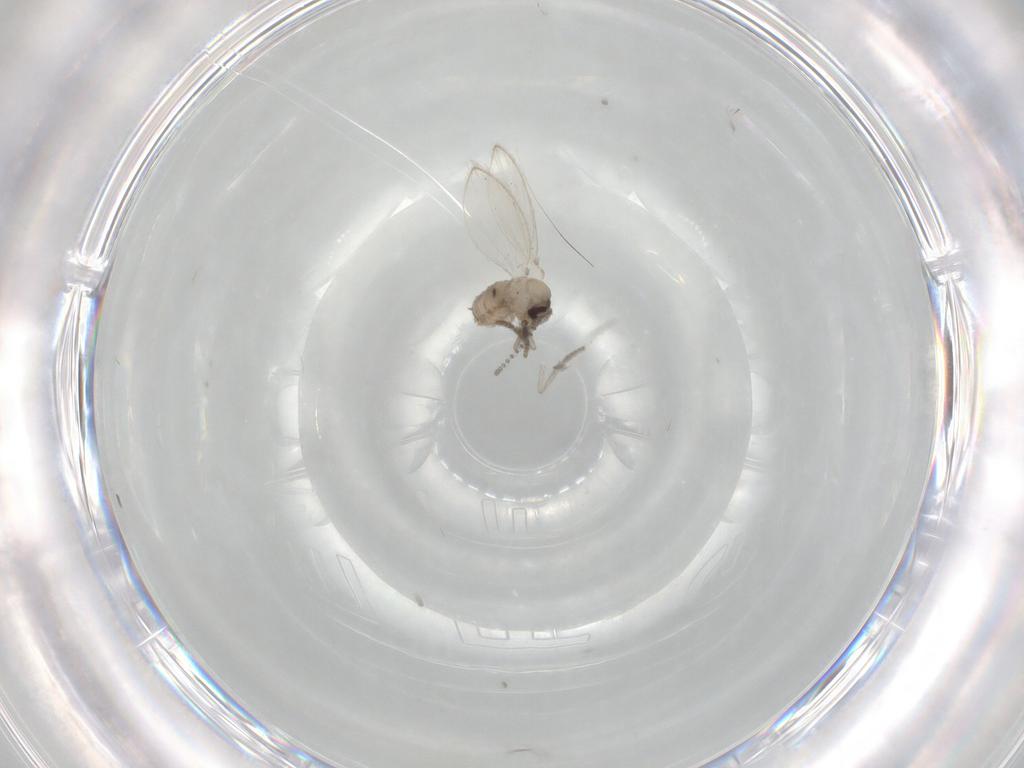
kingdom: Animalia
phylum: Arthropoda
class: Insecta
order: Diptera
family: Psychodidae
